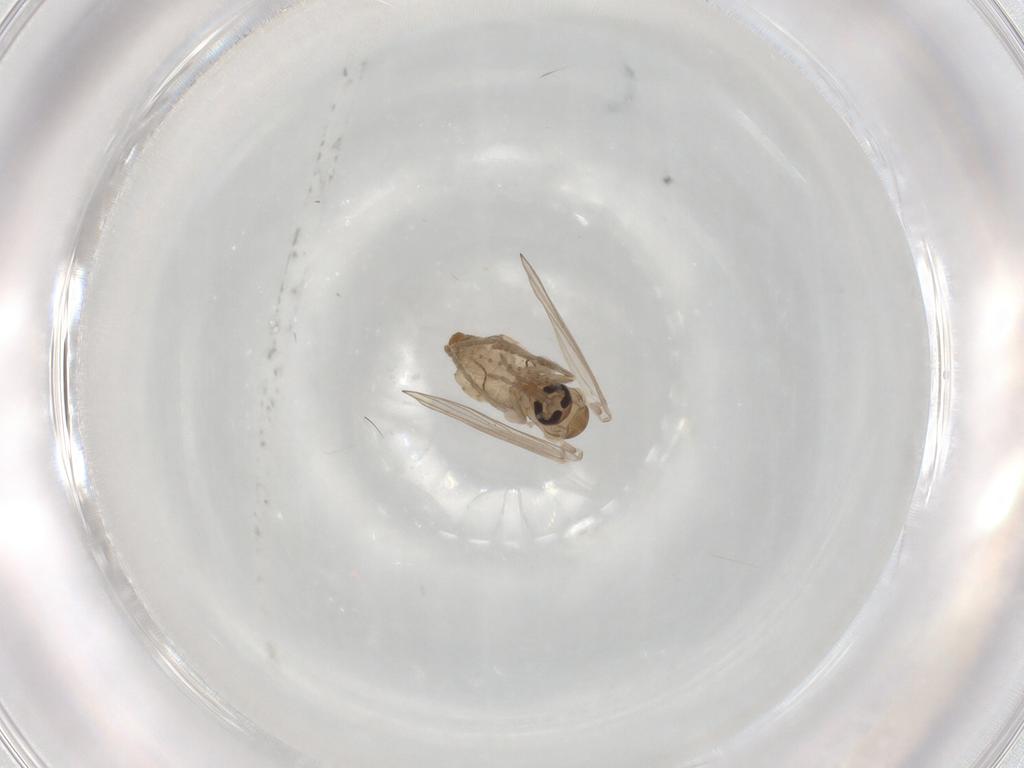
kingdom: Animalia
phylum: Arthropoda
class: Insecta
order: Diptera
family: Psychodidae
